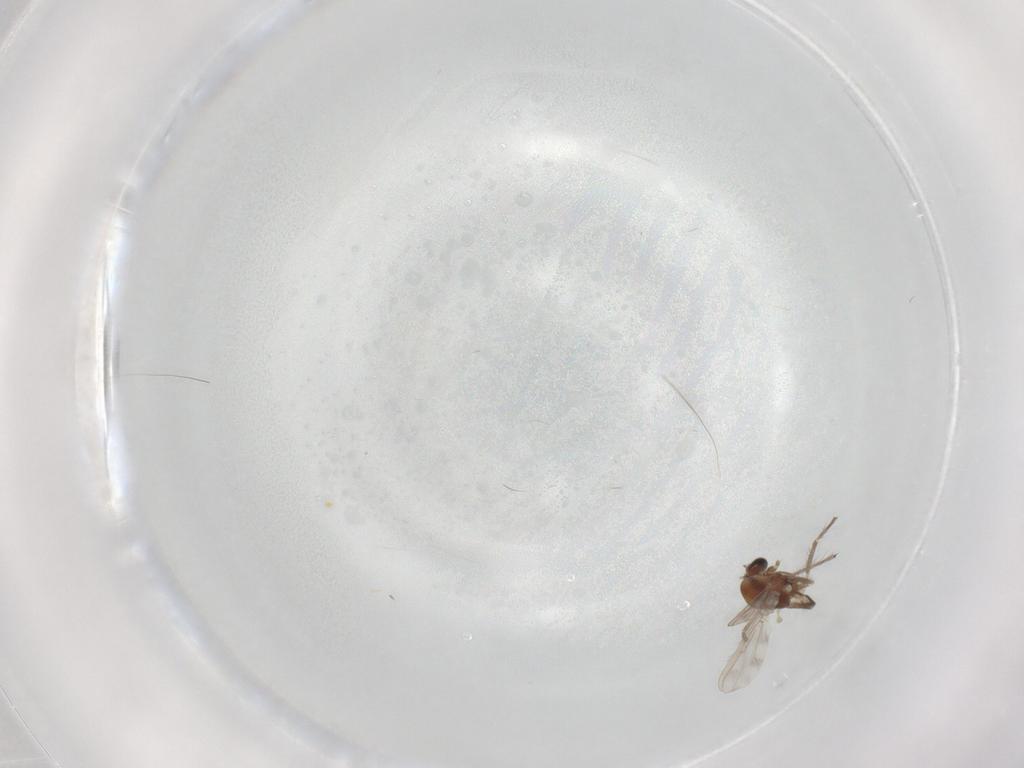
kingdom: Animalia
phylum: Arthropoda
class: Insecta
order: Diptera
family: Chironomidae
